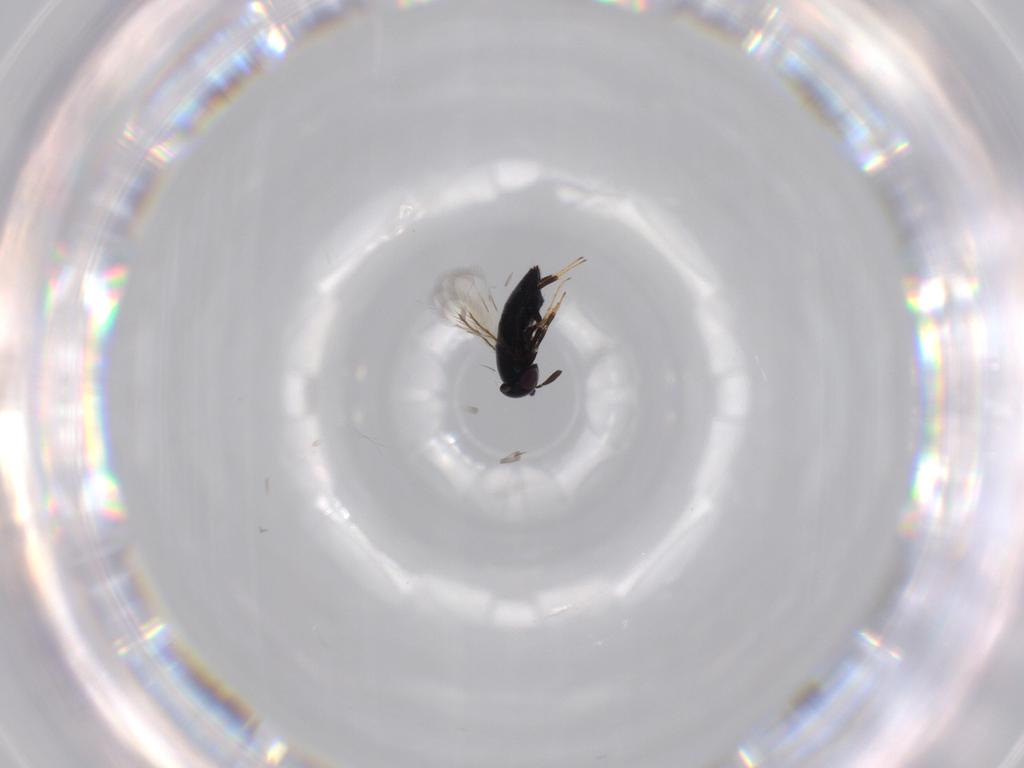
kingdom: Animalia
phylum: Arthropoda
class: Insecta
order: Hymenoptera
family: Signiphoridae
